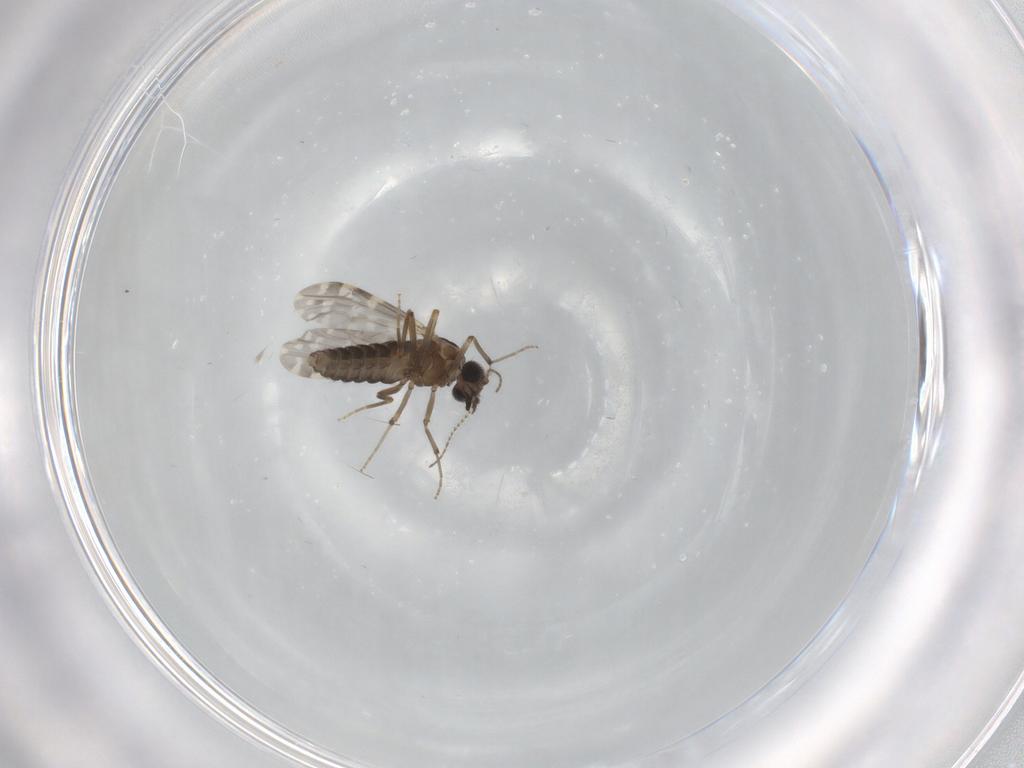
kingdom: Animalia
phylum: Arthropoda
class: Insecta
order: Diptera
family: Ceratopogonidae
